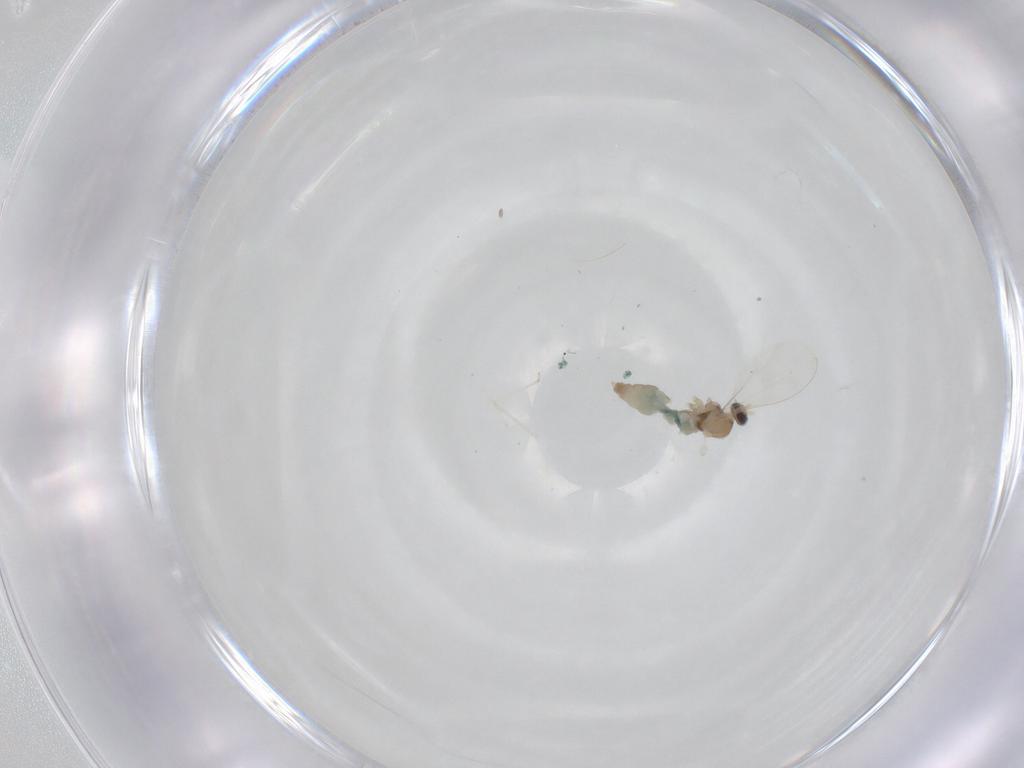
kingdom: Animalia
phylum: Arthropoda
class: Insecta
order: Diptera
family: Cecidomyiidae
